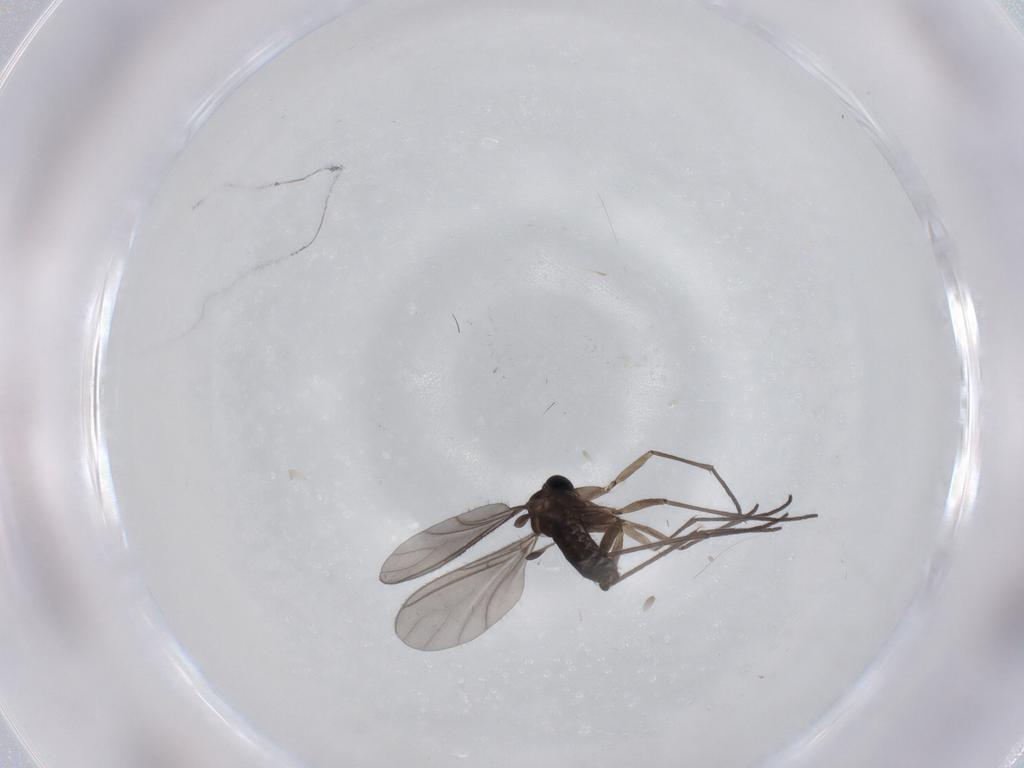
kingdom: Animalia
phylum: Arthropoda
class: Insecta
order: Diptera
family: Sciaridae
